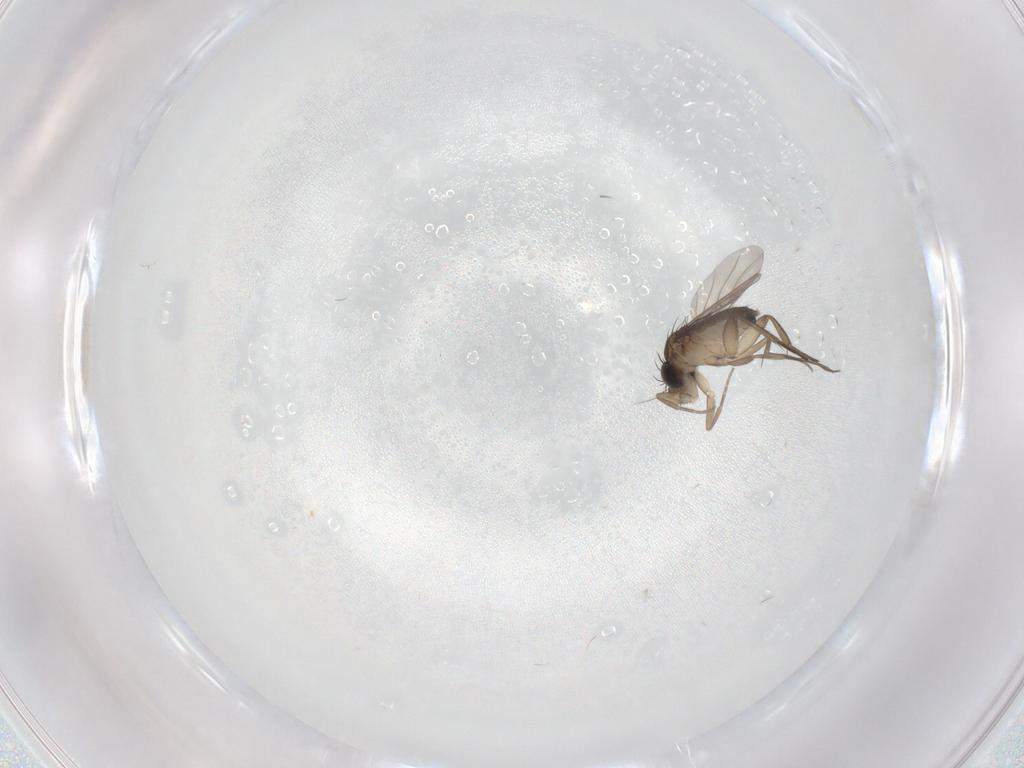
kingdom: Animalia
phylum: Arthropoda
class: Insecta
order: Diptera
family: Phoridae
